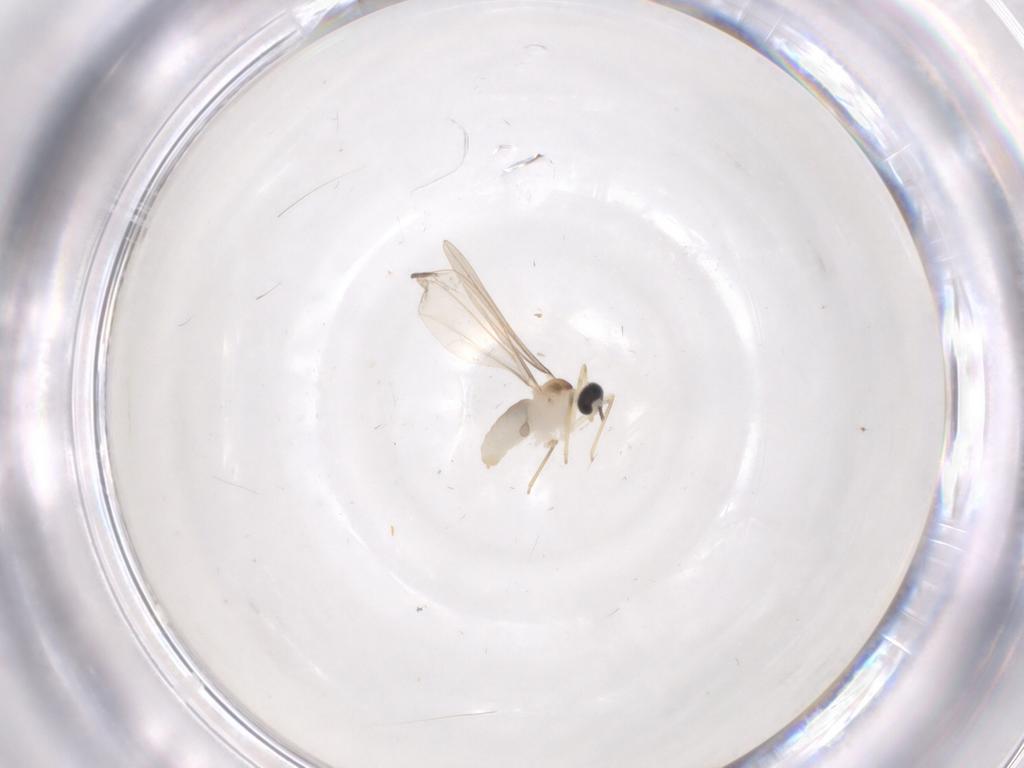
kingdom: Animalia
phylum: Arthropoda
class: Insecta
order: Diptera
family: Cecidomyiidae
